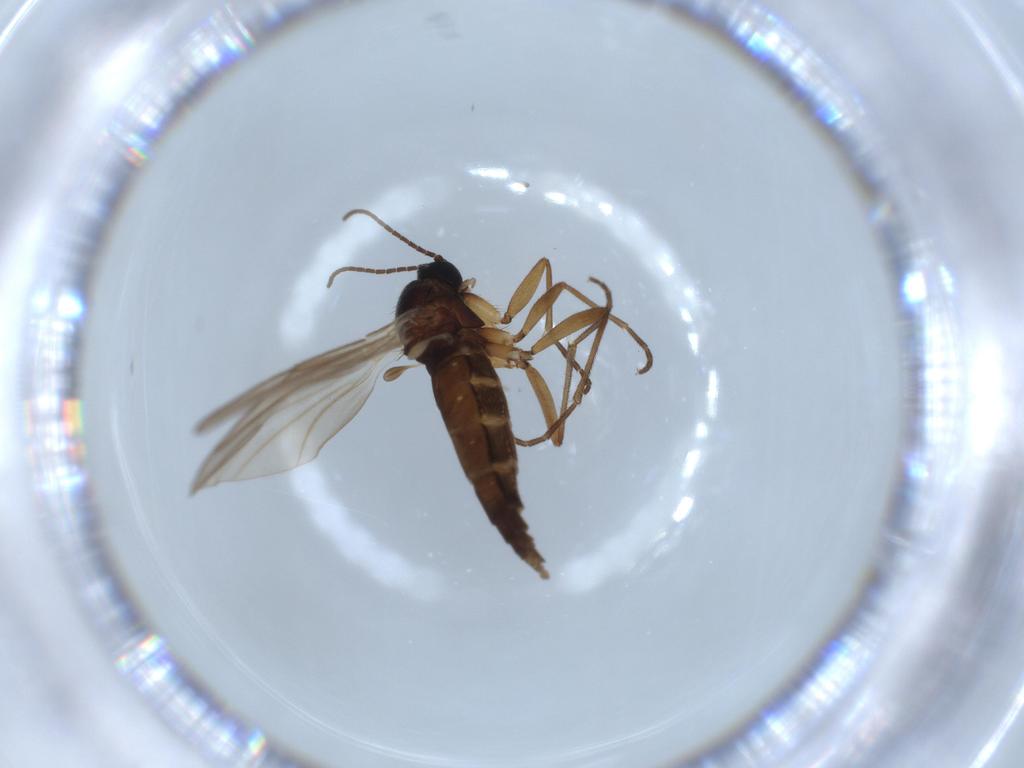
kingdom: Animalia
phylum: Arthropoda
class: Insecta
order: Diptera
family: Sciaridae
